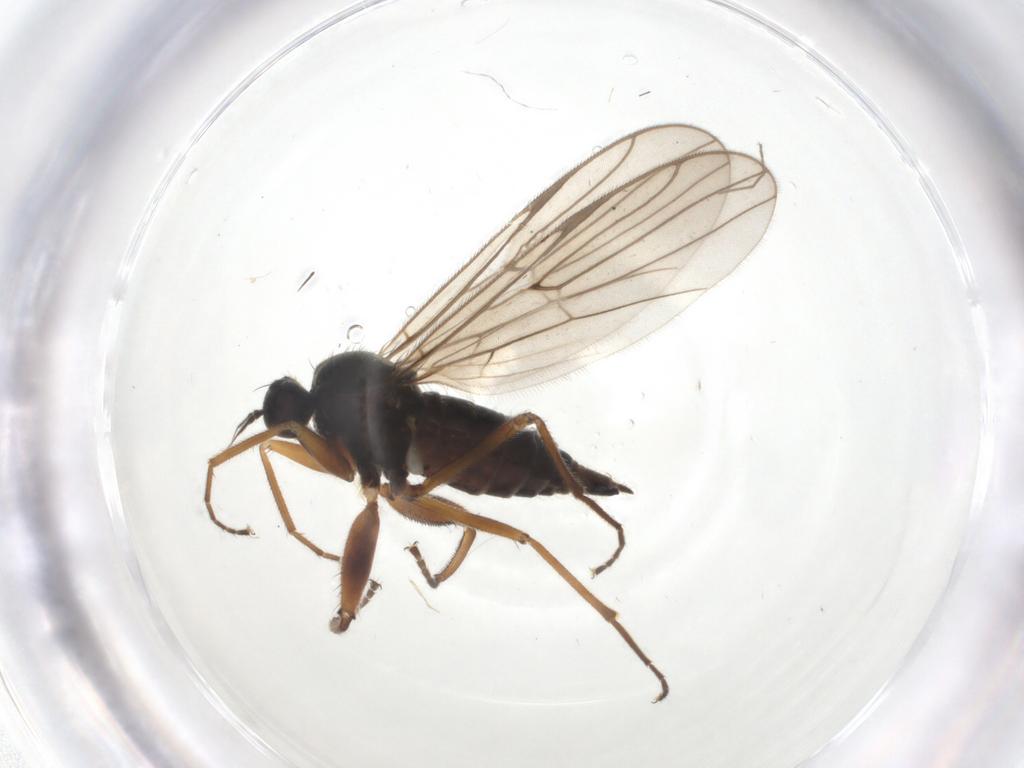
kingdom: Animalia
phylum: Arthropoda
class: Insecta
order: Diptera
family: Hybotidae
